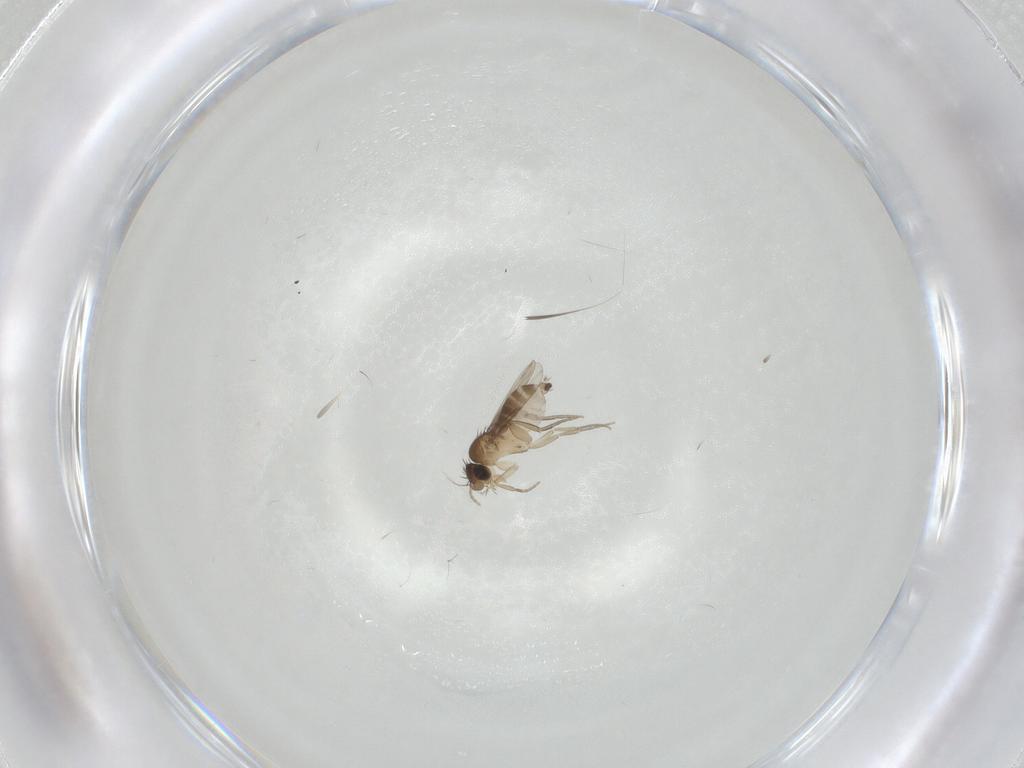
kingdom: Animalia
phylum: Arthropoda
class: Insecta
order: Diptera
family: Phoridae
